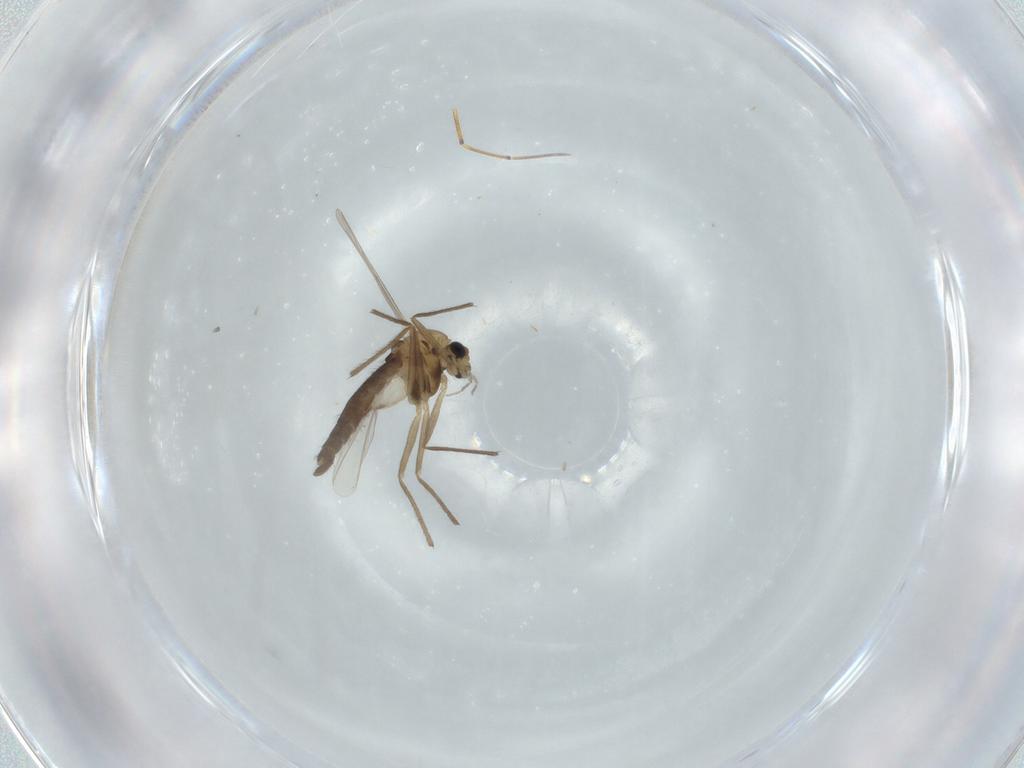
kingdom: Animalia
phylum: Arthropoda
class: Insecta
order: Diptera
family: Chironomidae
